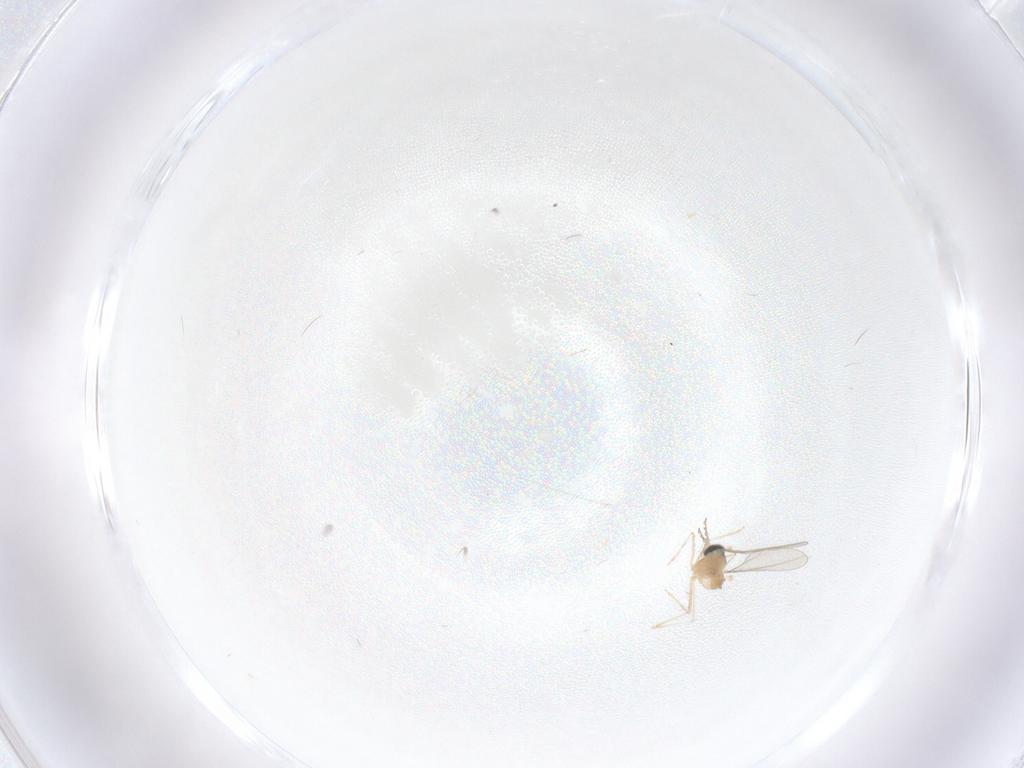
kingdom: Animalia
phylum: Arthropoda
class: Insecta
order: Diptera
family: Cecidomyiidae
